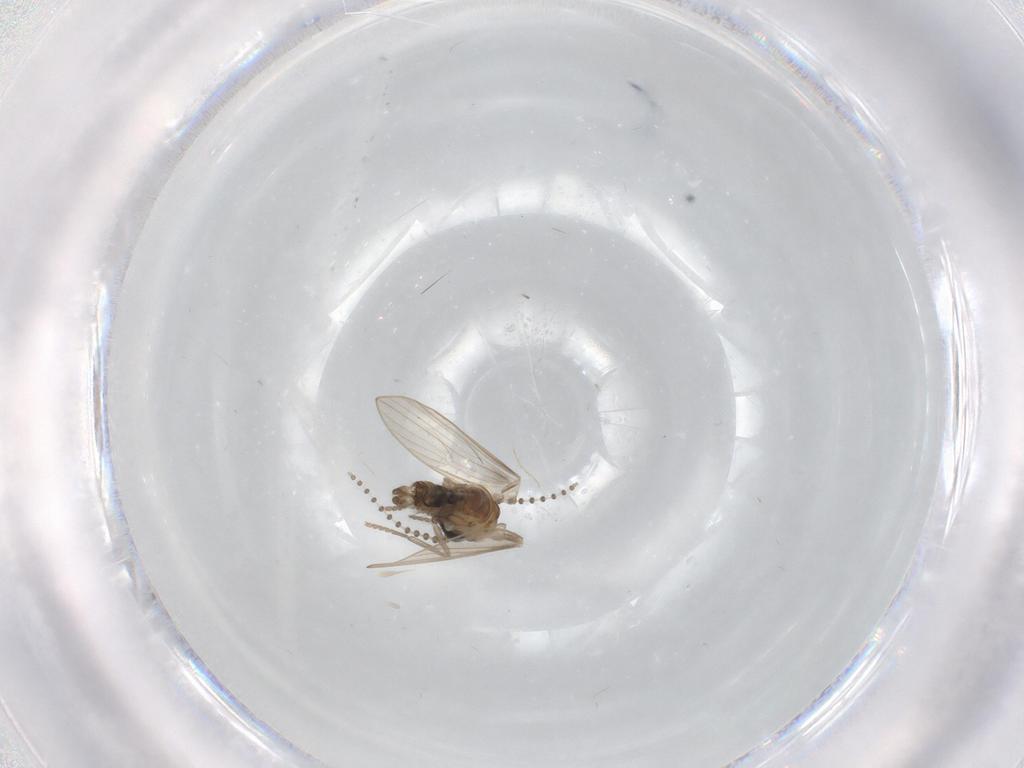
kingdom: Animalia
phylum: Arthropoda
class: Insecta
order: Diptera
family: Psychodidae
